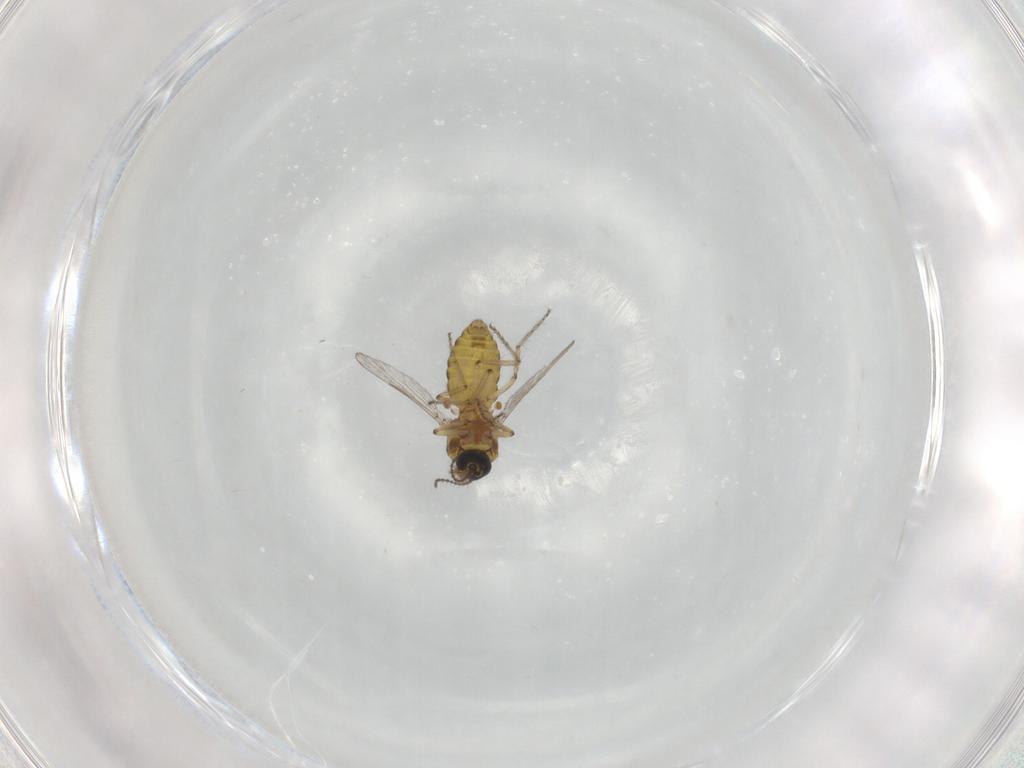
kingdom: Animalia
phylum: Arthropoda
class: Insecta
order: Diptera
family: Ceratopogonidae
